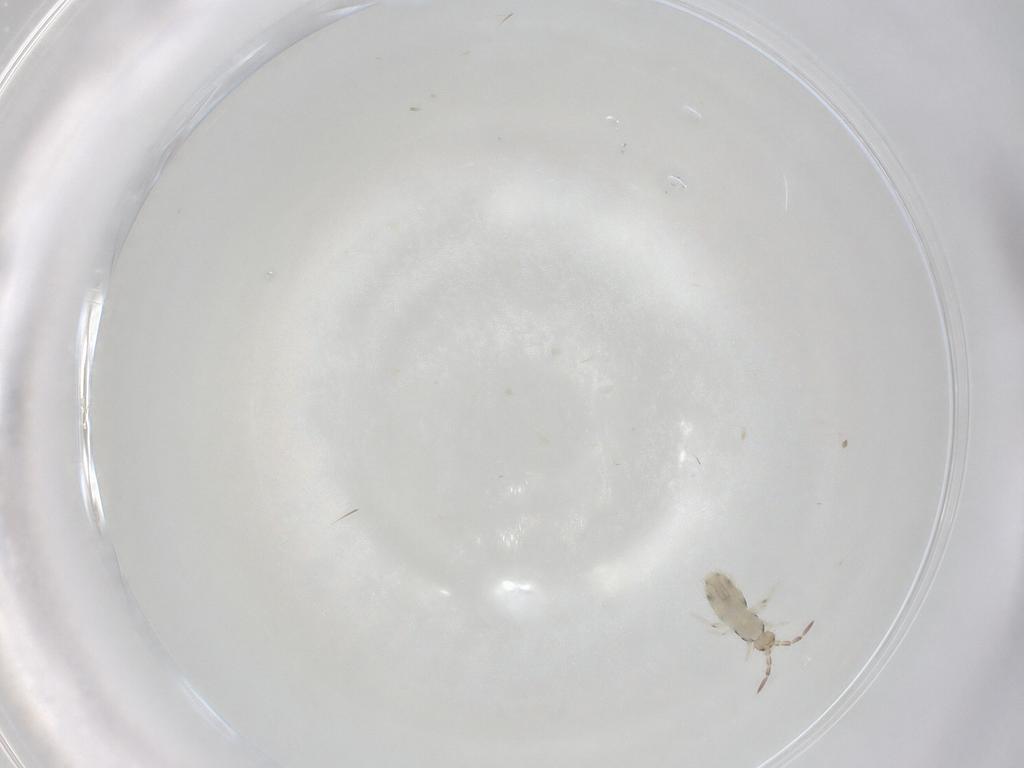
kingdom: Animalia
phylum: Arthropoda
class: Collembola
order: Entomobryomorpha
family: Entomobryidae
